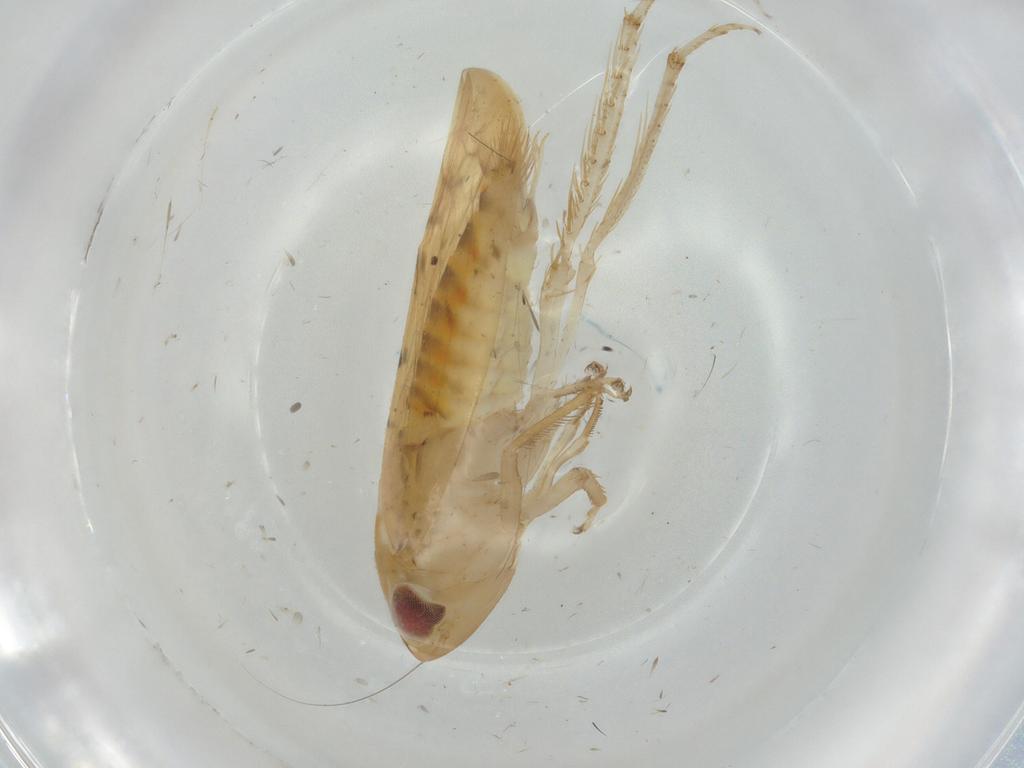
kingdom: Animalia
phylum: Arthropoda
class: Insecta
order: Hemiptera
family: Cicadellidae
